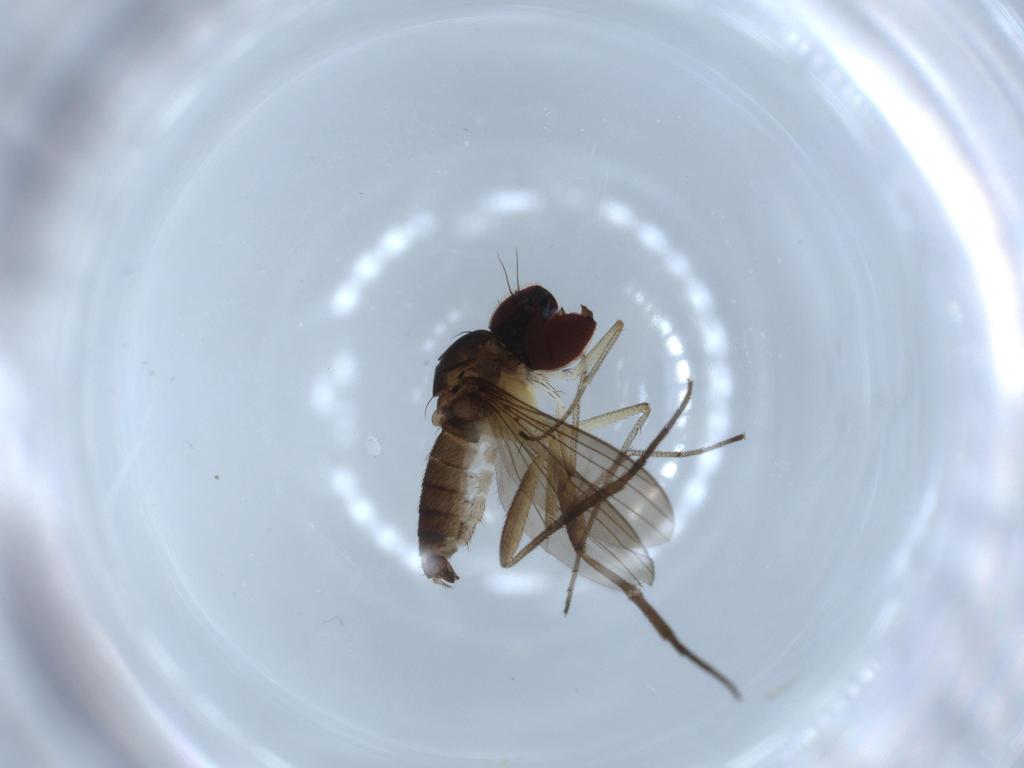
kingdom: Animalia
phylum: Arthropoda
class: Insecta
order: Diptera
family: Dolichopodidae
